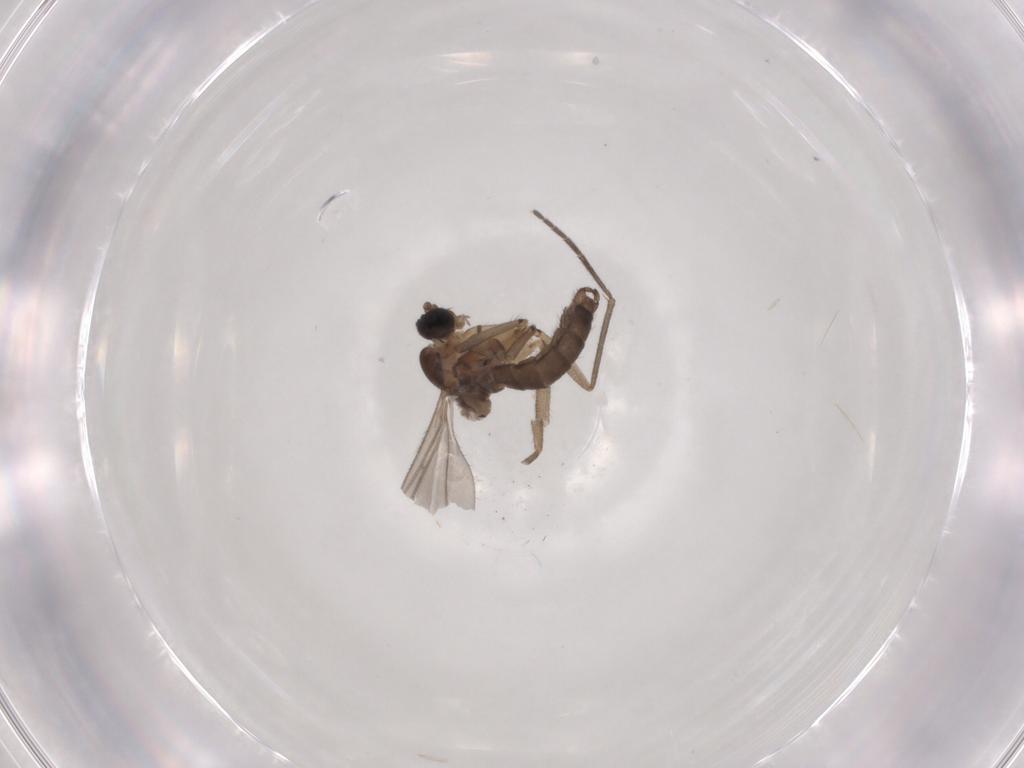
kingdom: Animalia
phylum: Arthropoda
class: Insecta
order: Diptera
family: Sciaridae
